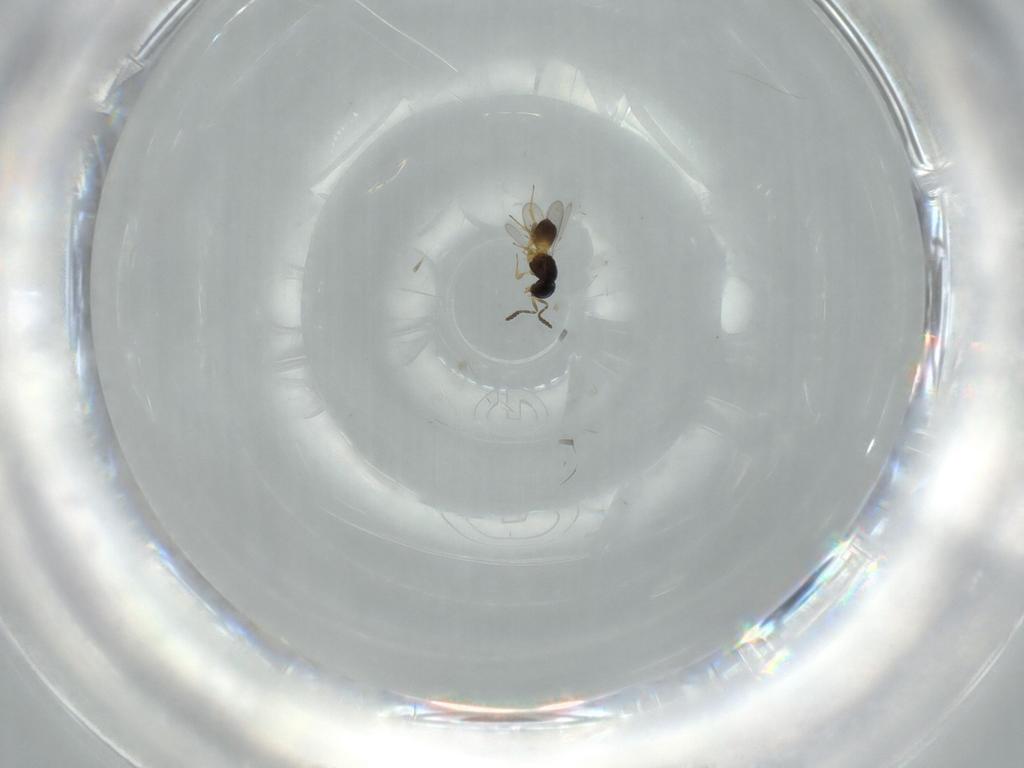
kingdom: Animalia
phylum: Arthropoda
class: Insecta
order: Hymenoptera
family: Scelionidae
